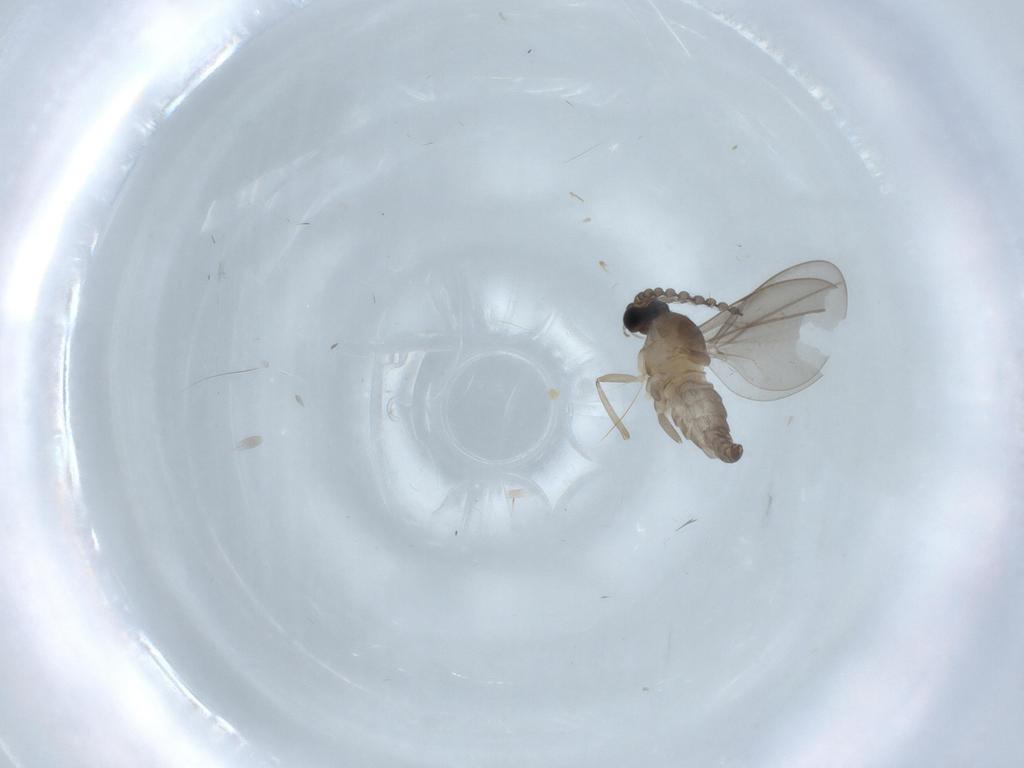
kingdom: Animalia
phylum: Arthropoda
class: Insecta
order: Diptera
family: Cecidomyiidae
